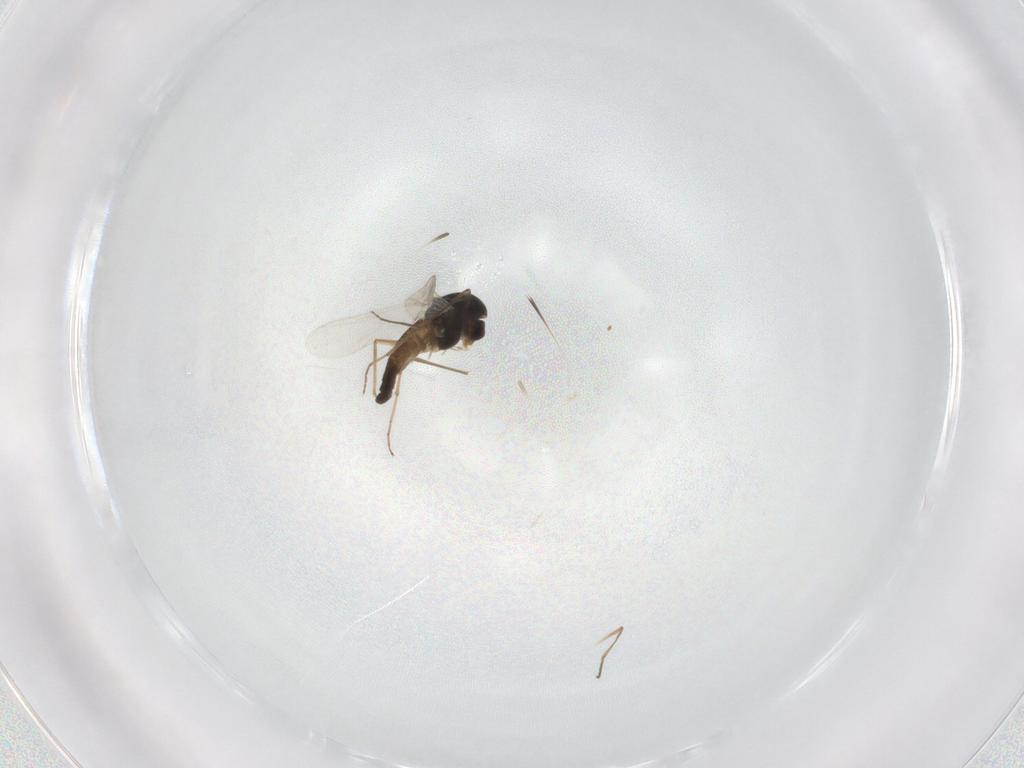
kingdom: Animalia
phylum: Arthropoda
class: Insecta
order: Diptera
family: Chironomidae
